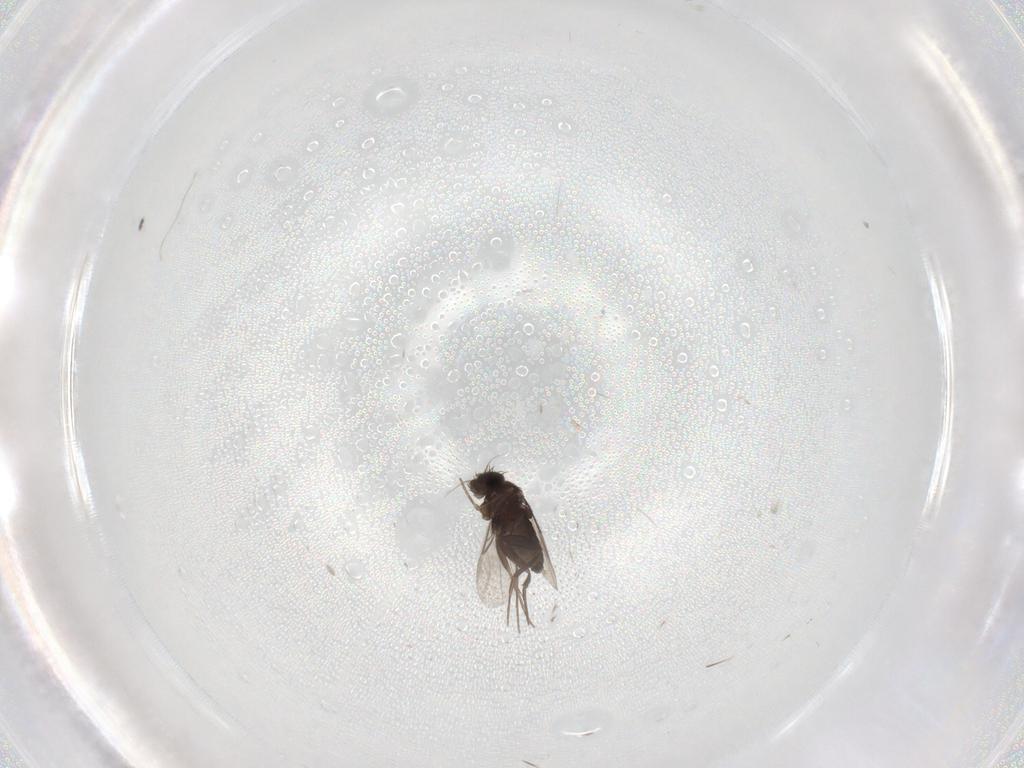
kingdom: Animalia
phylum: Arthropoda
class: Insecta
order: Diptera
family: Phoridae
